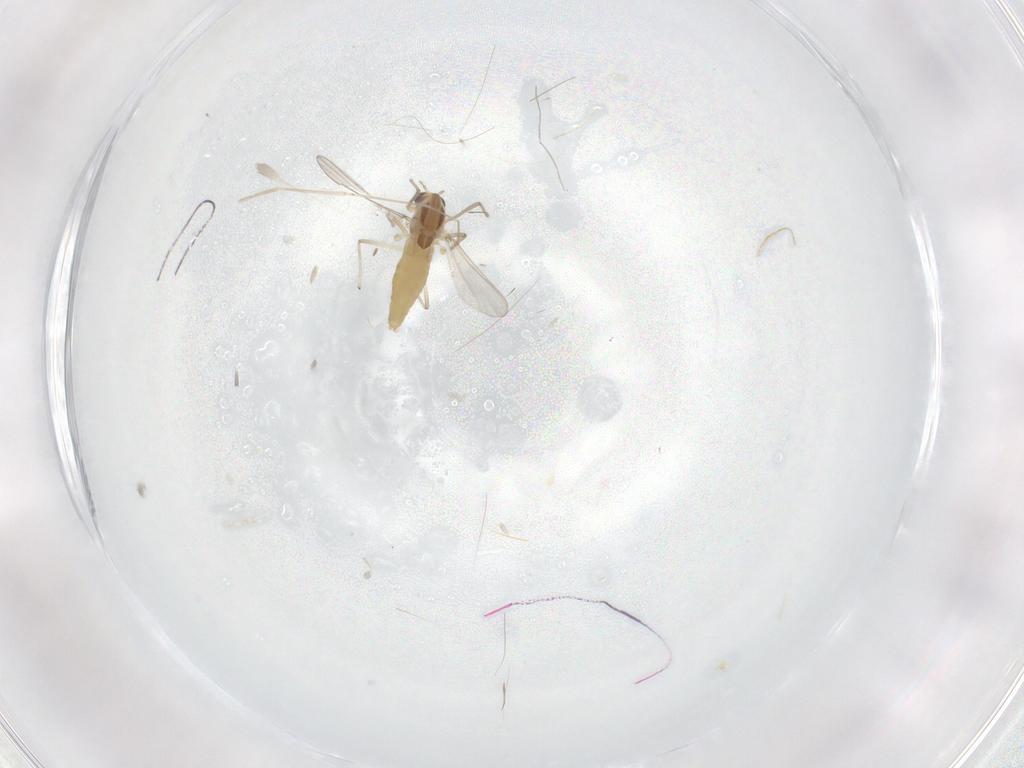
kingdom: Animalia
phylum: Arthropoda
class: Insecta
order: Diptera
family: Chironomidae
